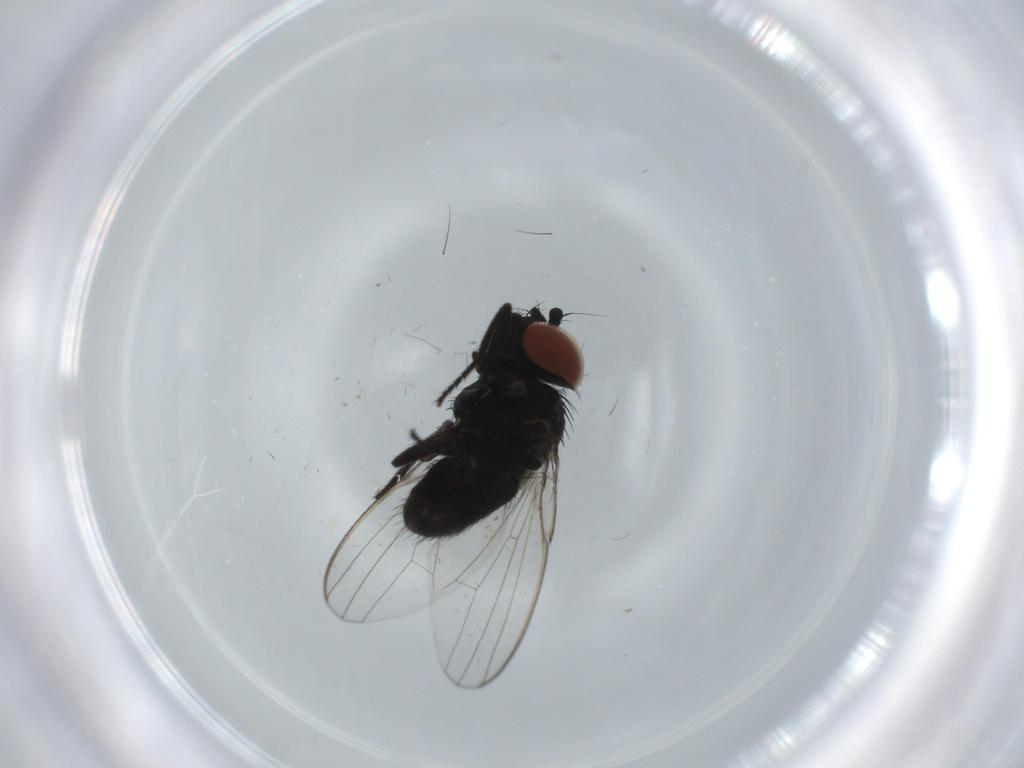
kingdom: Animalia
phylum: Arthropoda
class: Insecta
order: Diptera
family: Milichiidae
